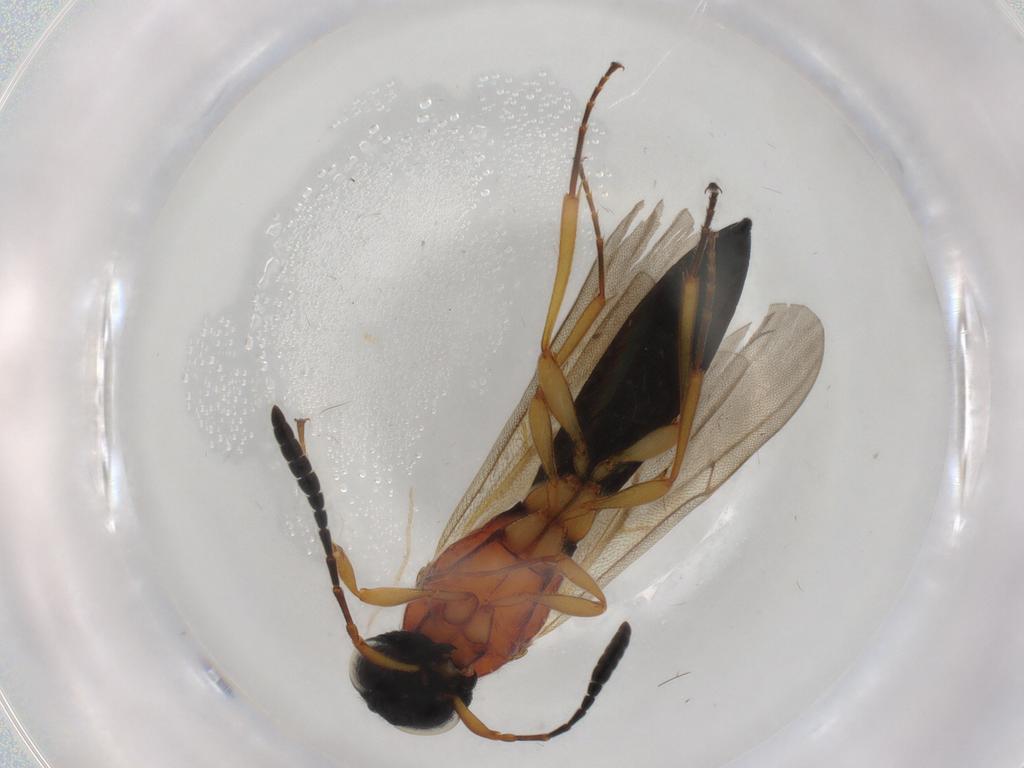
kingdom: Animalia
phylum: Arthropoda
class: Insecta
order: Hymenoptera
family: Formicidae
